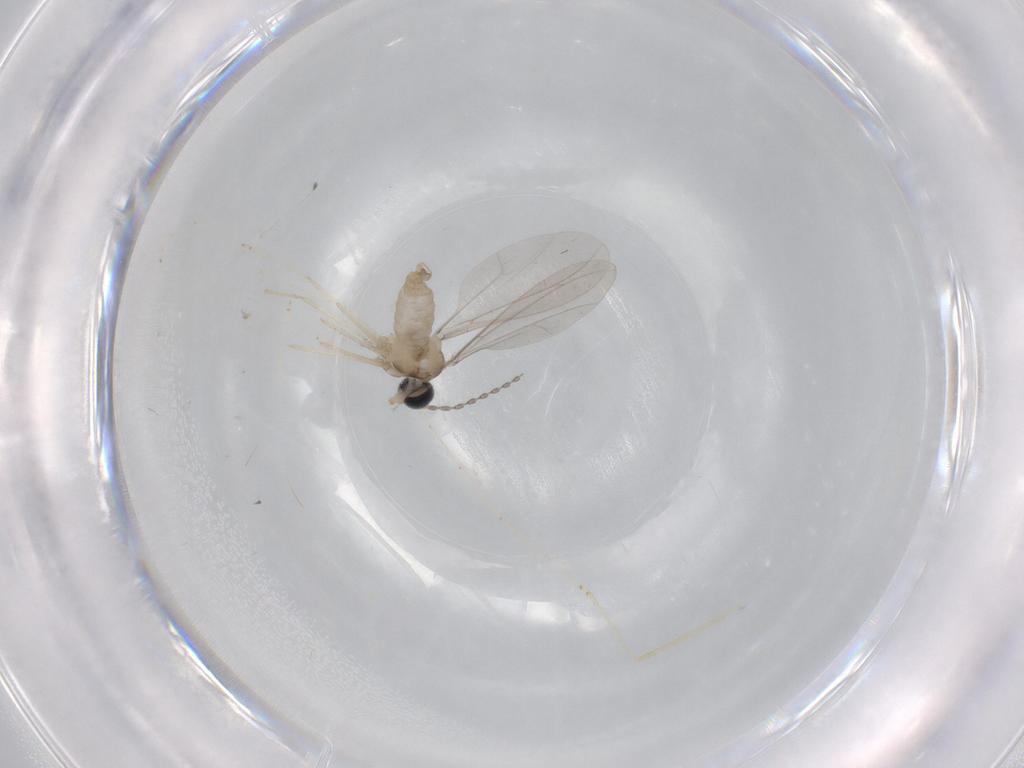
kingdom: Animalia
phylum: Arthropoda
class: Insecta
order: Diptera
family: Cecidomyiidae
